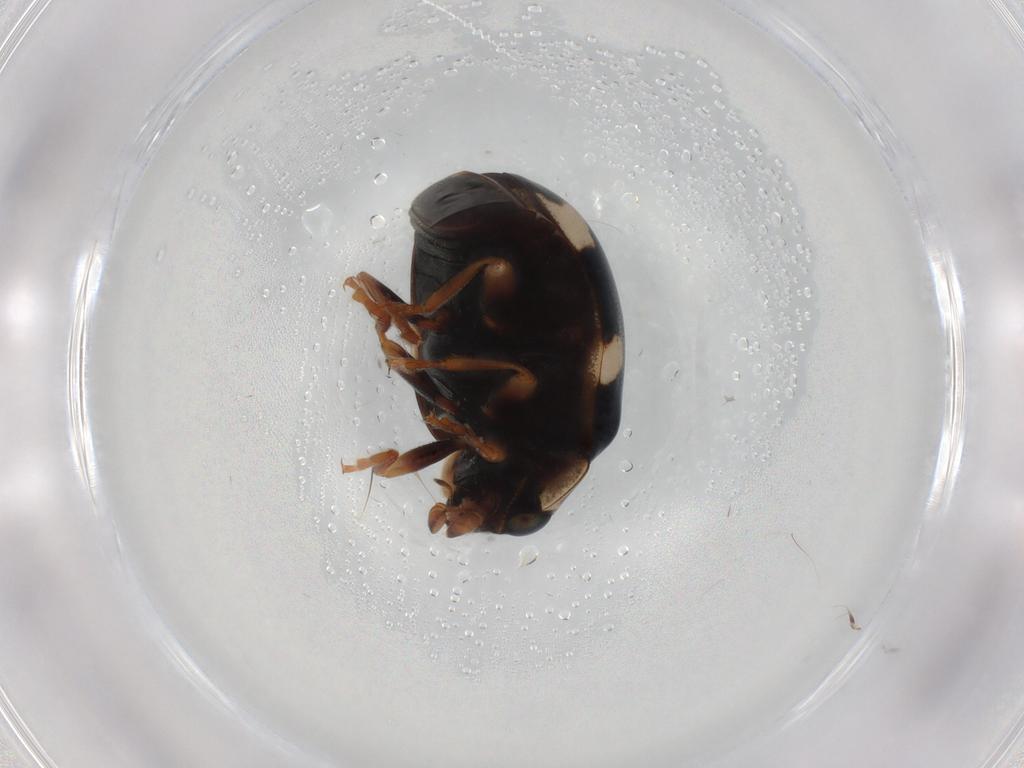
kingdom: Animalia
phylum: Arthropoda
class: Insecta
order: Coleoptera
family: Coccinellidae
